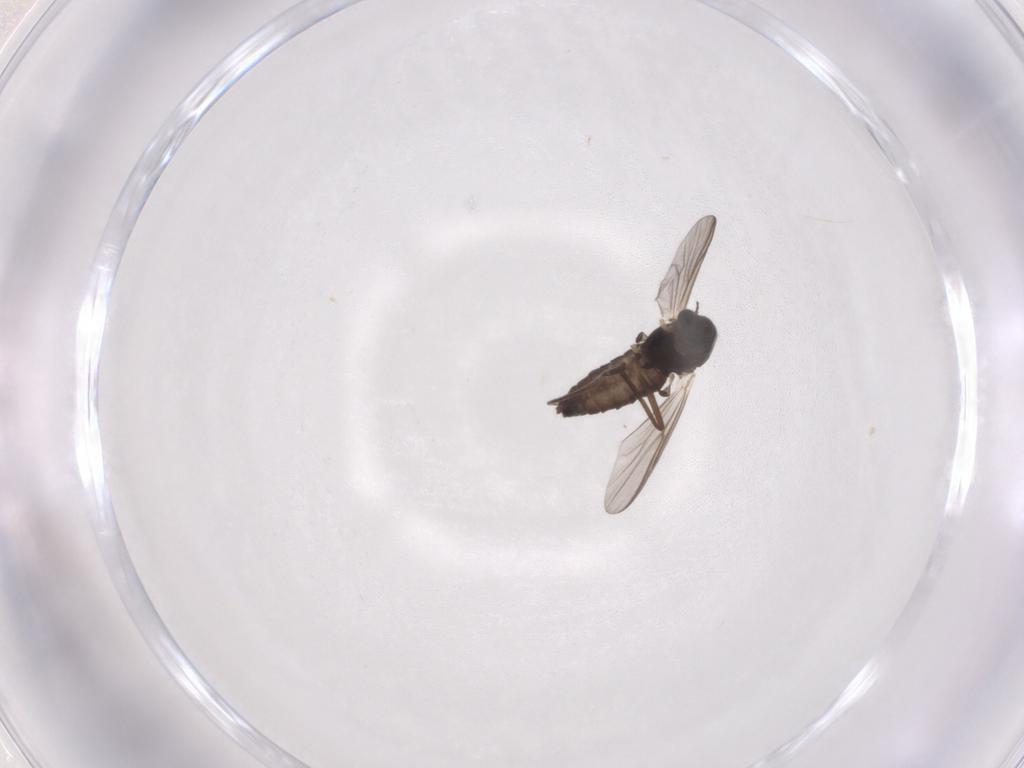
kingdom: Animalia
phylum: Arthropoda
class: Insecta
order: Diptera
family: Chironomidae
